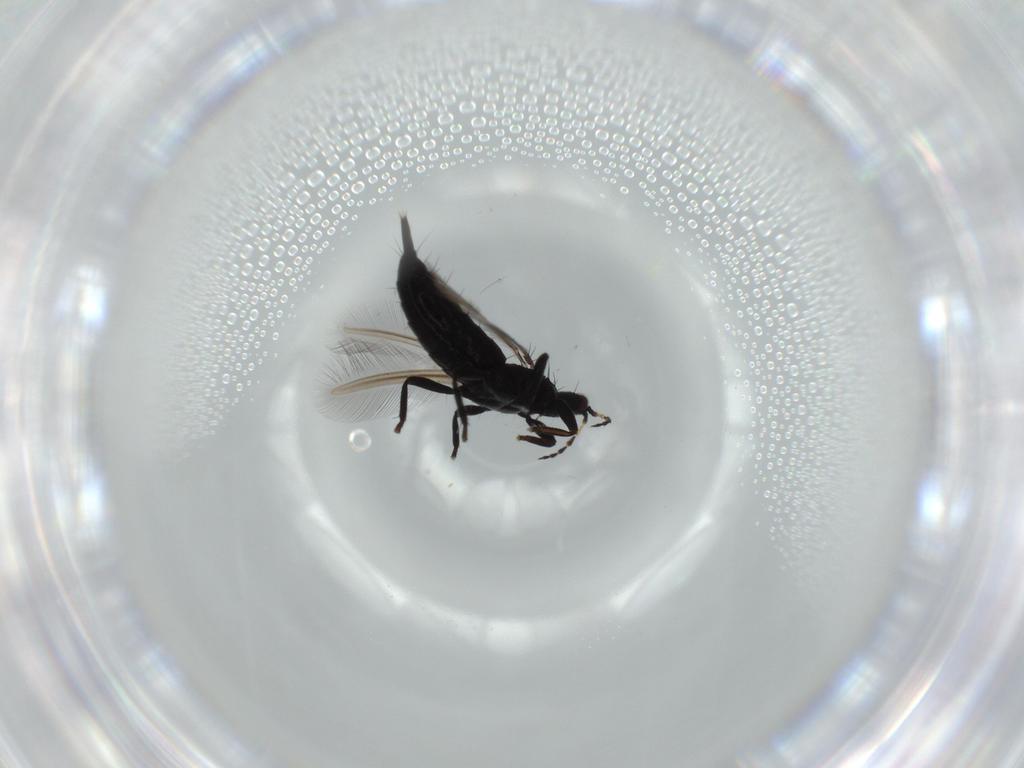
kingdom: Animalia
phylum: Arthropoda
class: Insecta
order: Thysanoptera
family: Phlaeothripidae
